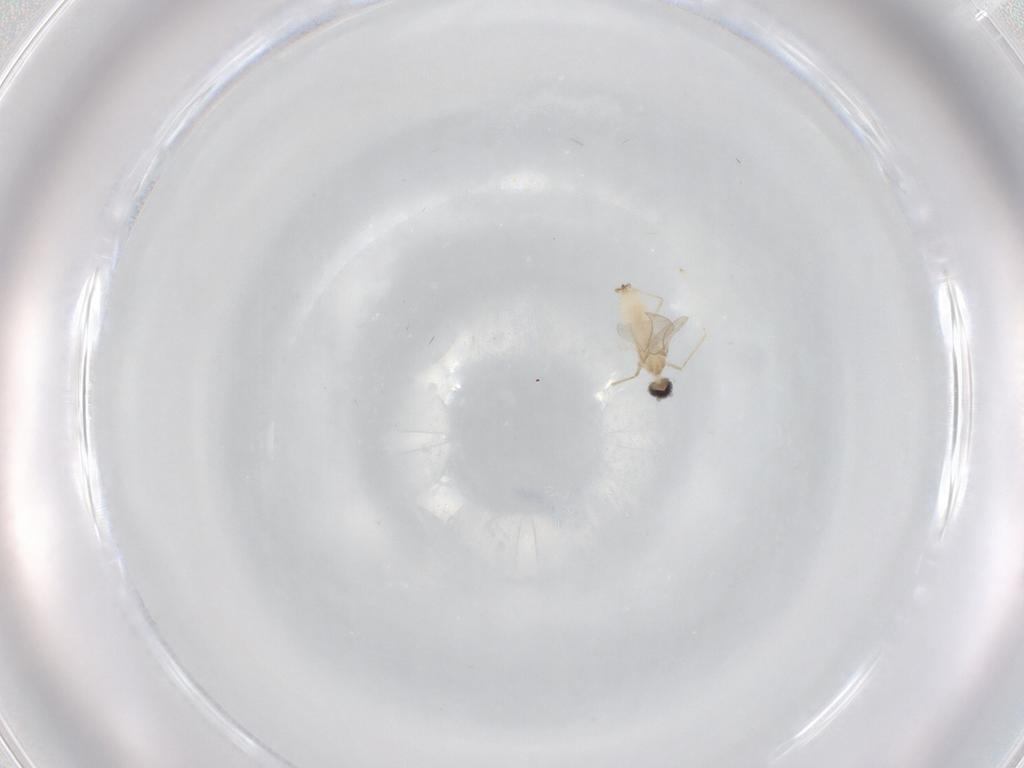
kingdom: Animalia
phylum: Arthropoda
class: Insecta
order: Diptera
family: Cecidomyiidae
